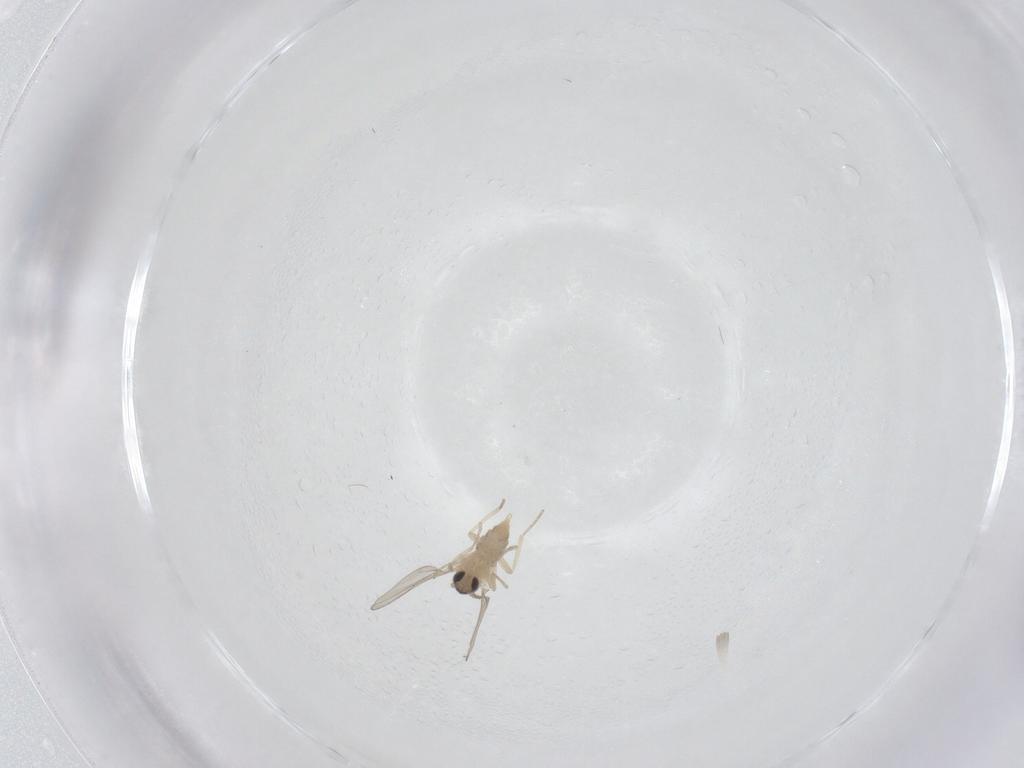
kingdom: Animalia
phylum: Arthropoda
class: Insecta
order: Diptera
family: Cecidomyiidae
